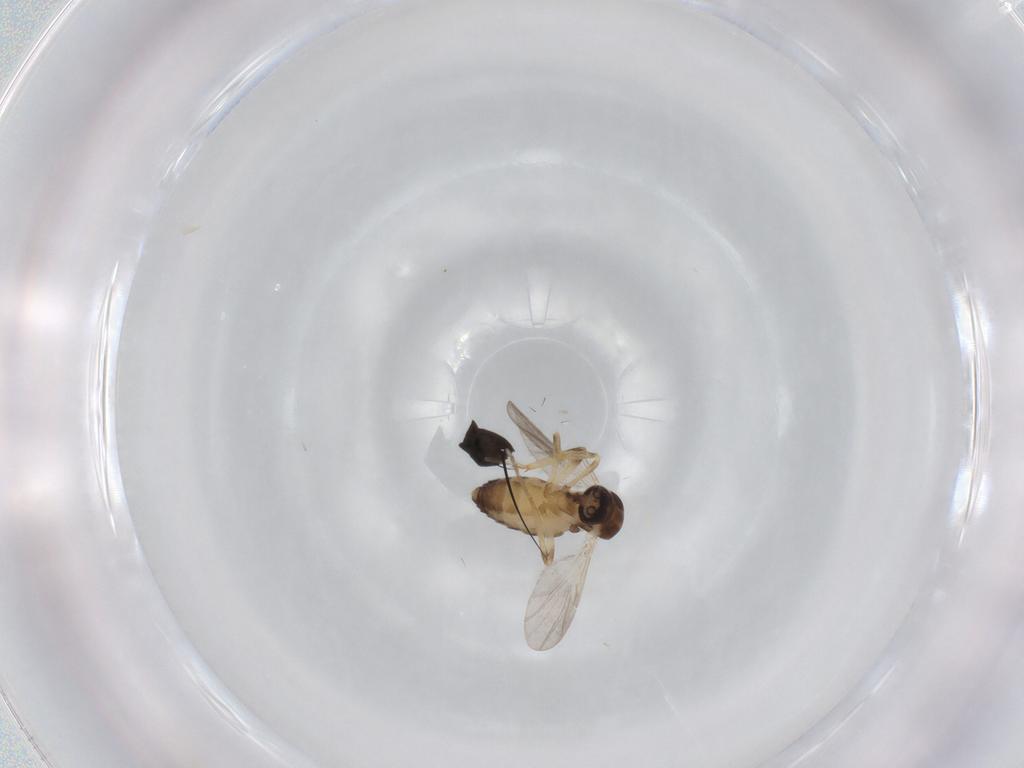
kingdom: Animalia
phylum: Arthropoda
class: Insecta
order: Diptera
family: Ceratopogonidae
